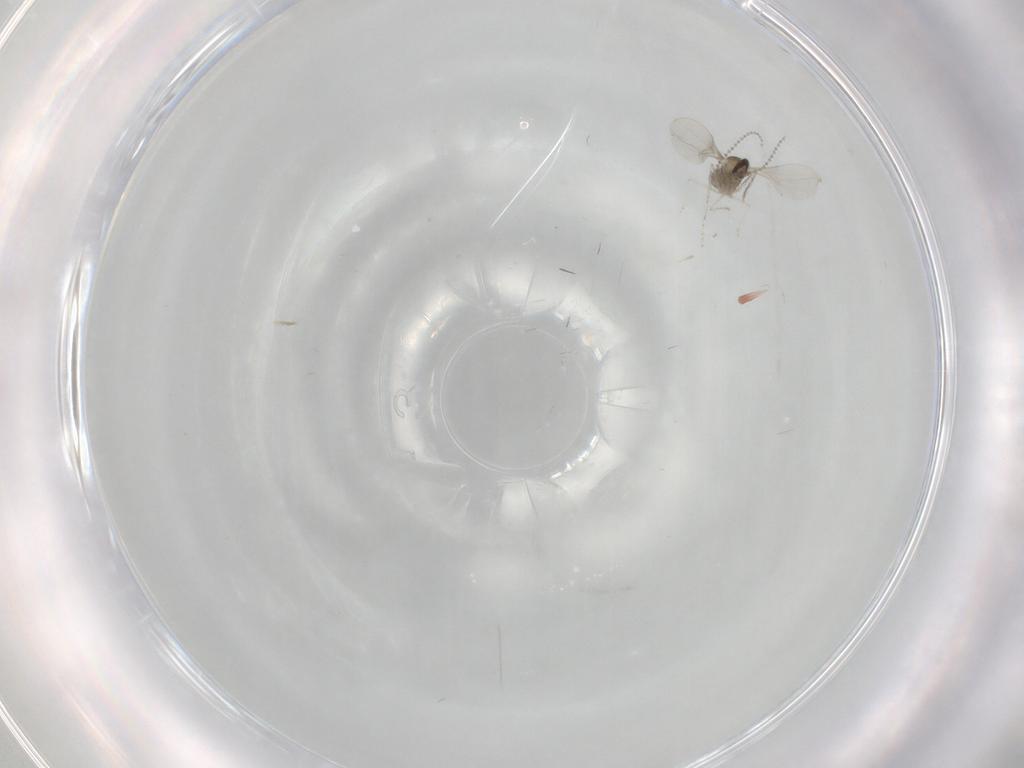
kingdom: Animalia
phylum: Arthropoda
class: Insecta
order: Diptera
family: Cecidomyiidae
